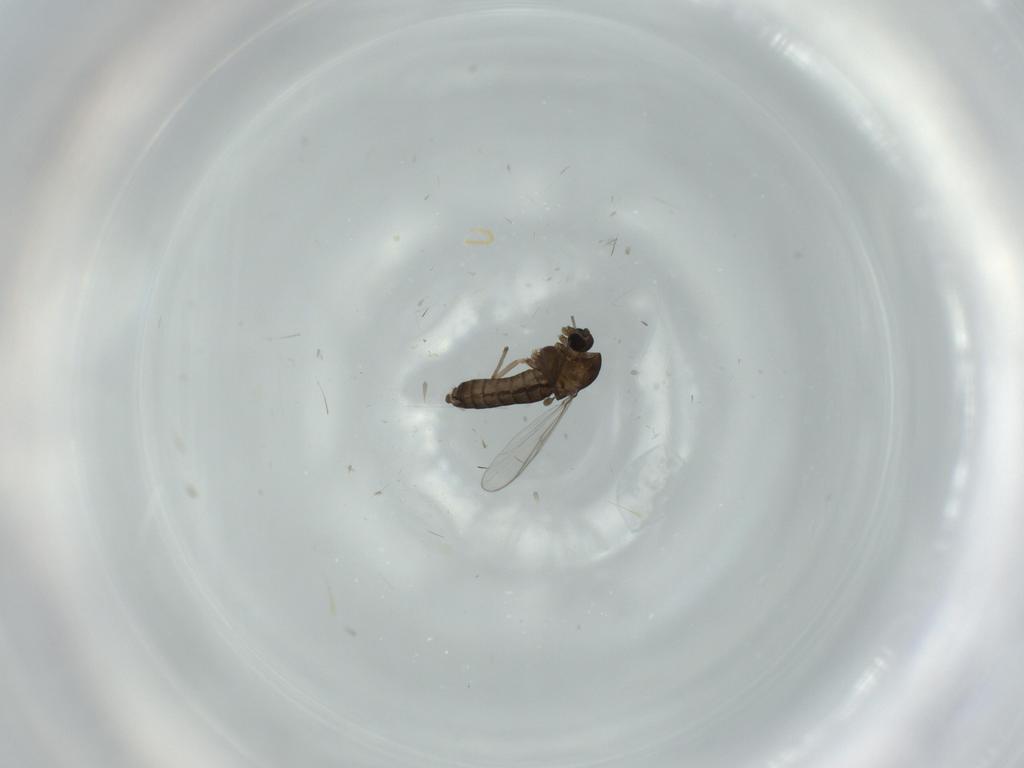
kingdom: Animalia
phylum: Arthropoda
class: Insecta
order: Diptera
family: Chironomidae
